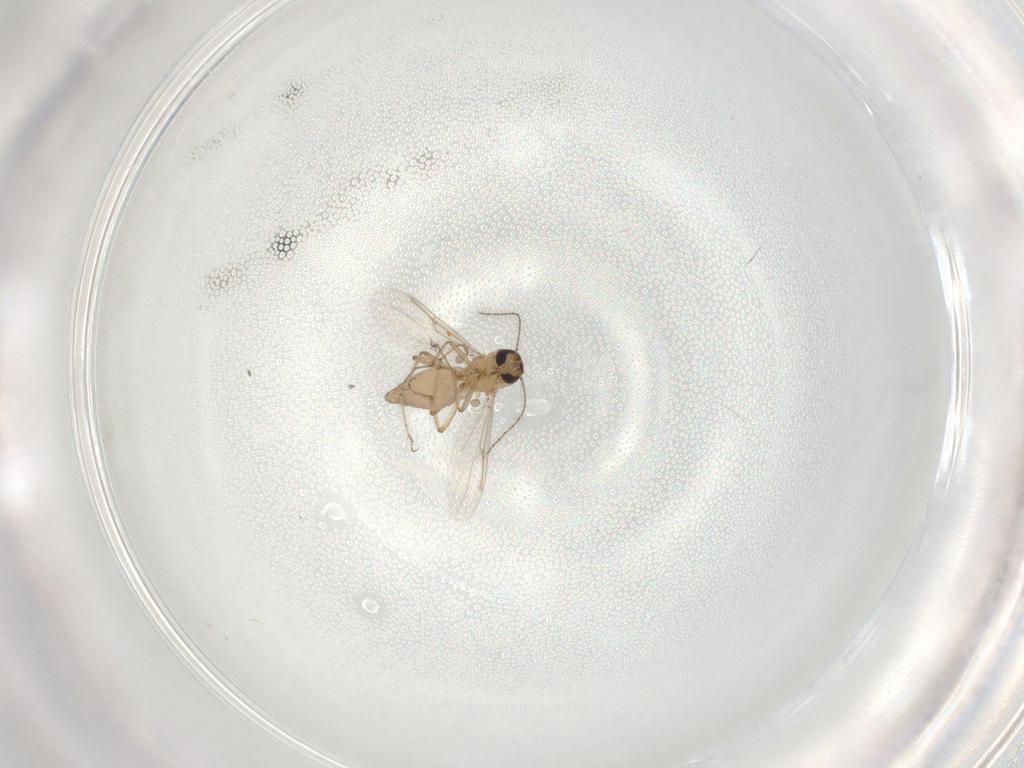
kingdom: Animalia
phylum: Arthropoda
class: Insecta
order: Diptera
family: Ceratopogonidae
